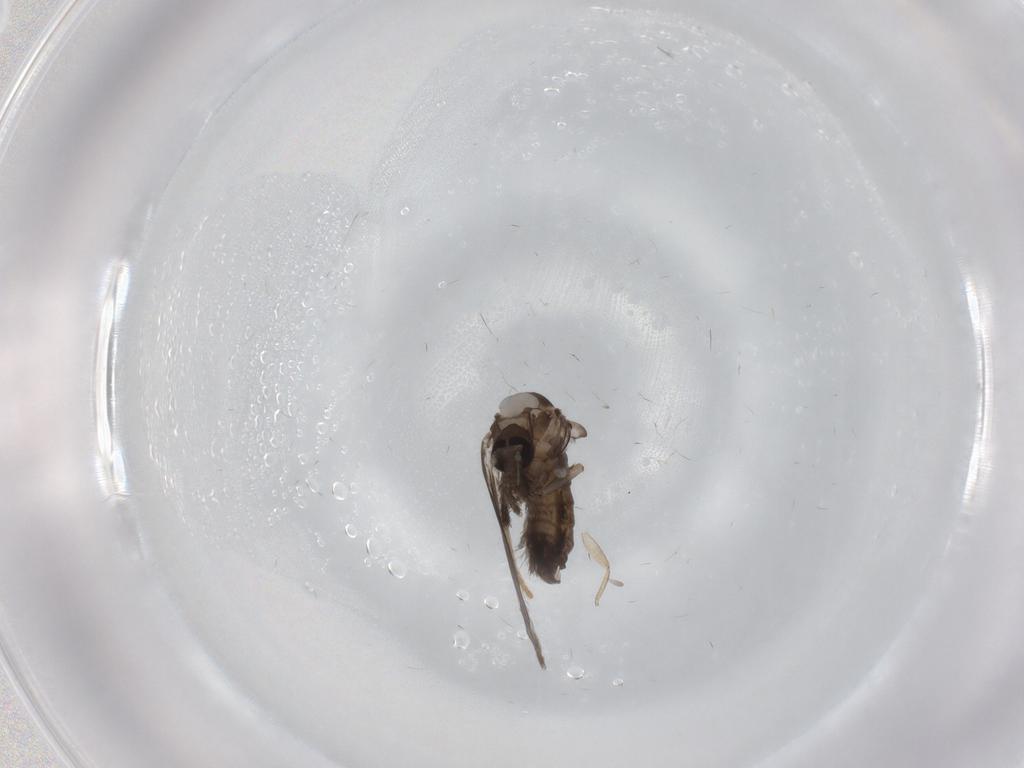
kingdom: Animalia
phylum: Arthropoda
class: Insecta
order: Diptera
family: Psychodidae
